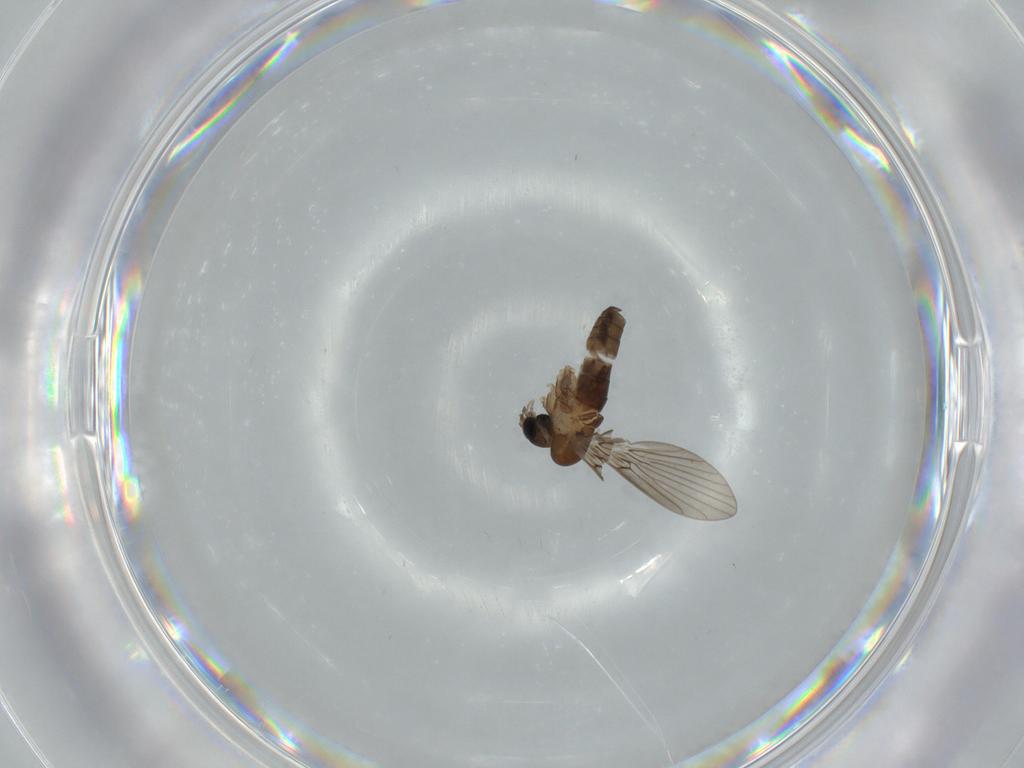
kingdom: Animalia
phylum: Arthropoda
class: Insecta
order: Diptera
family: Psychodidae
